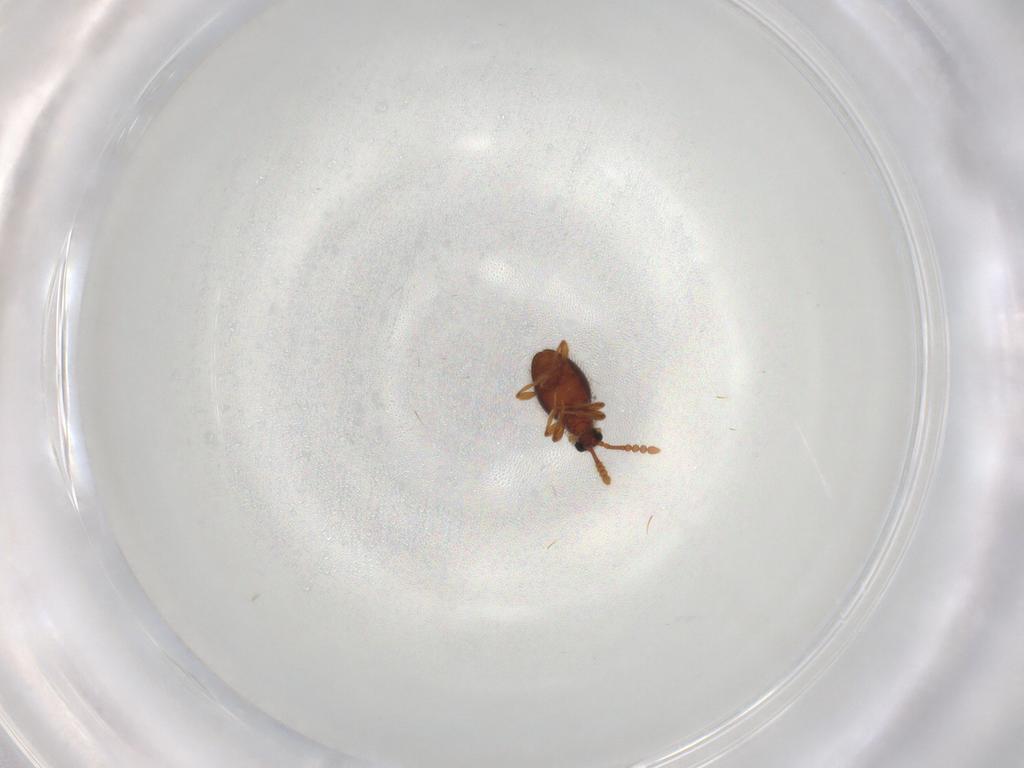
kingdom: Animalia
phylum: Arthropoda
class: Insecta
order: Coleoptera
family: Staphylinidae
